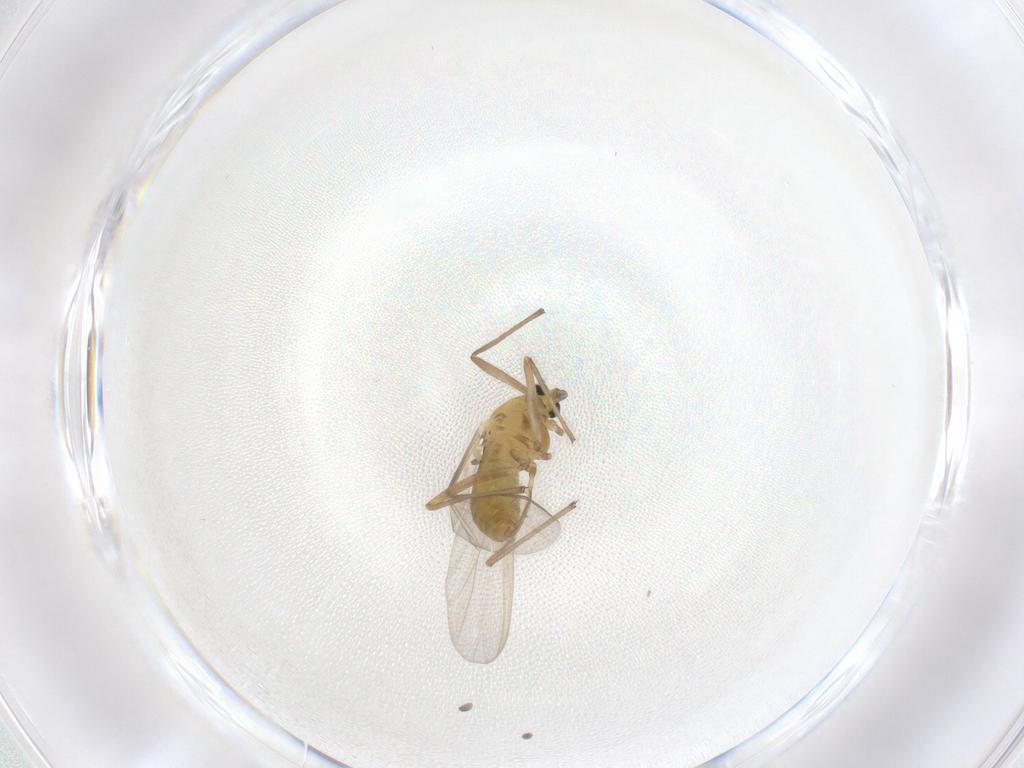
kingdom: Animalia
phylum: Arthropoda
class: Insecta
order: Diptera
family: Chironomidae
